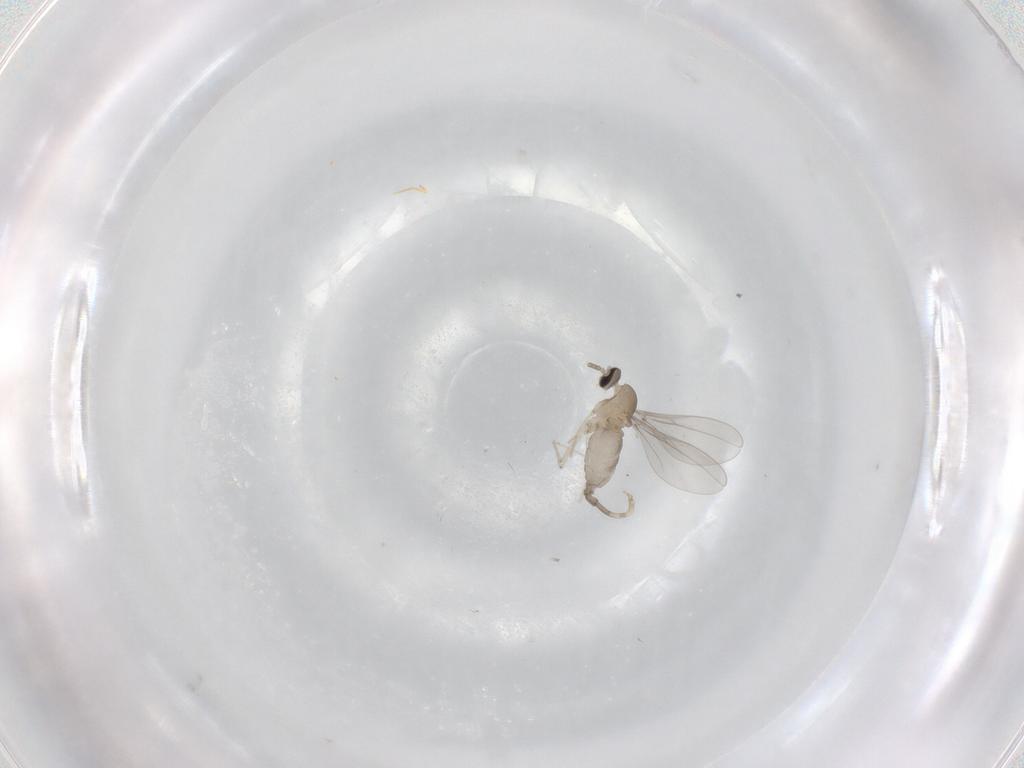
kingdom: Animalia
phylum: Arthropoda
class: Insecta
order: Diptera
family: Cecidomyiidae
